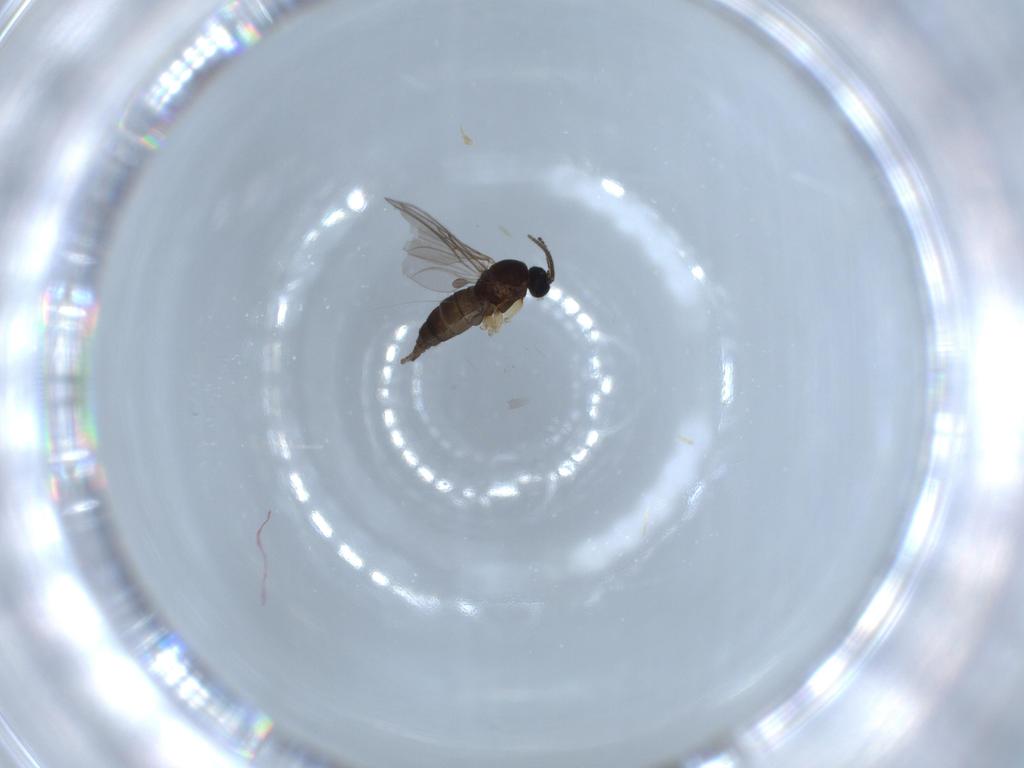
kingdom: Animalia
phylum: Arthropoda
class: Insecta
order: Diptera
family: Sciaridae
